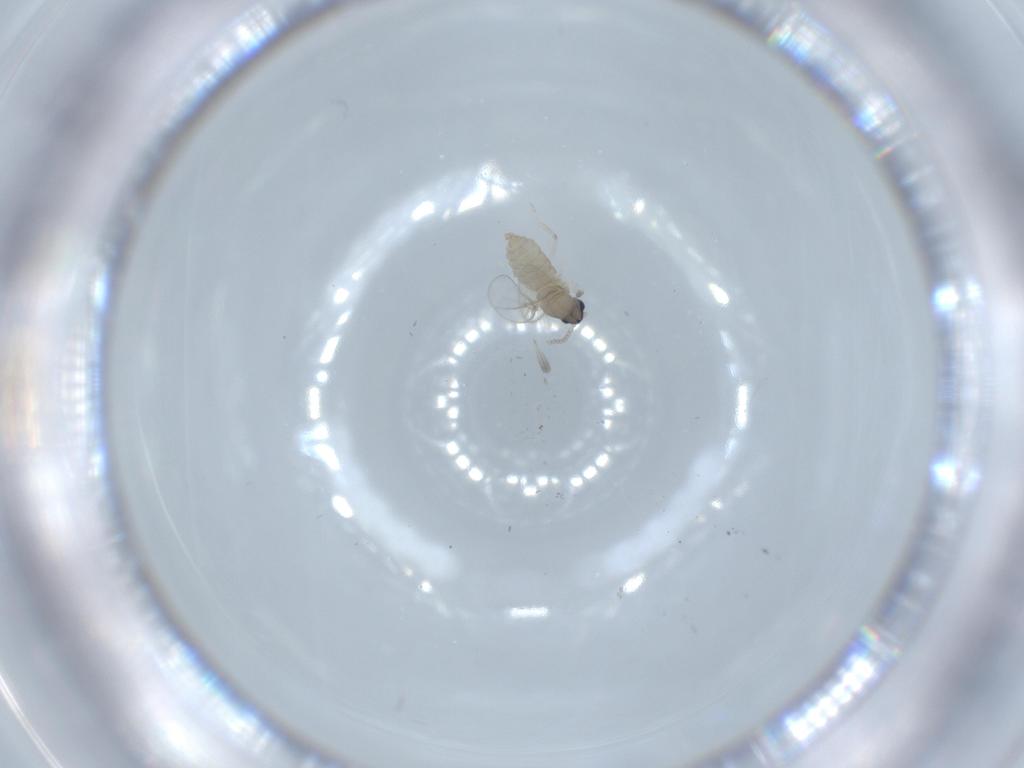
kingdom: Animalia
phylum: Arthropoda
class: Insecta
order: Diptera
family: Cecidomyiidae
